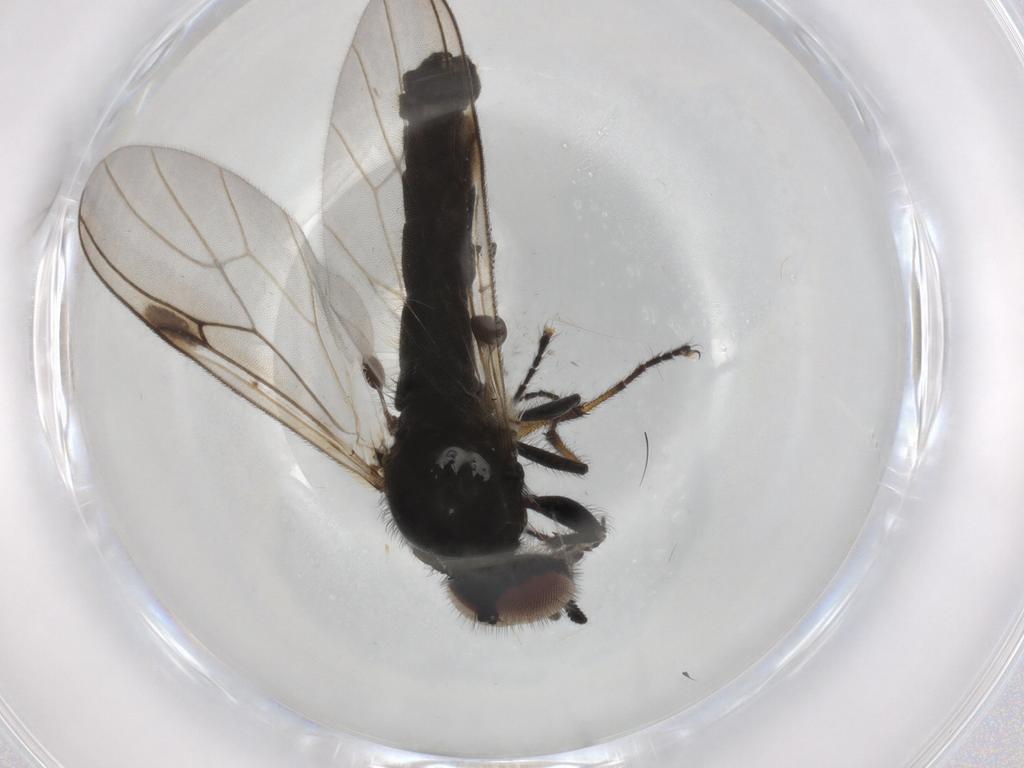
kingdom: Animalia
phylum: Arthropoda
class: Insecta
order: Diptera
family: Bibionidae
